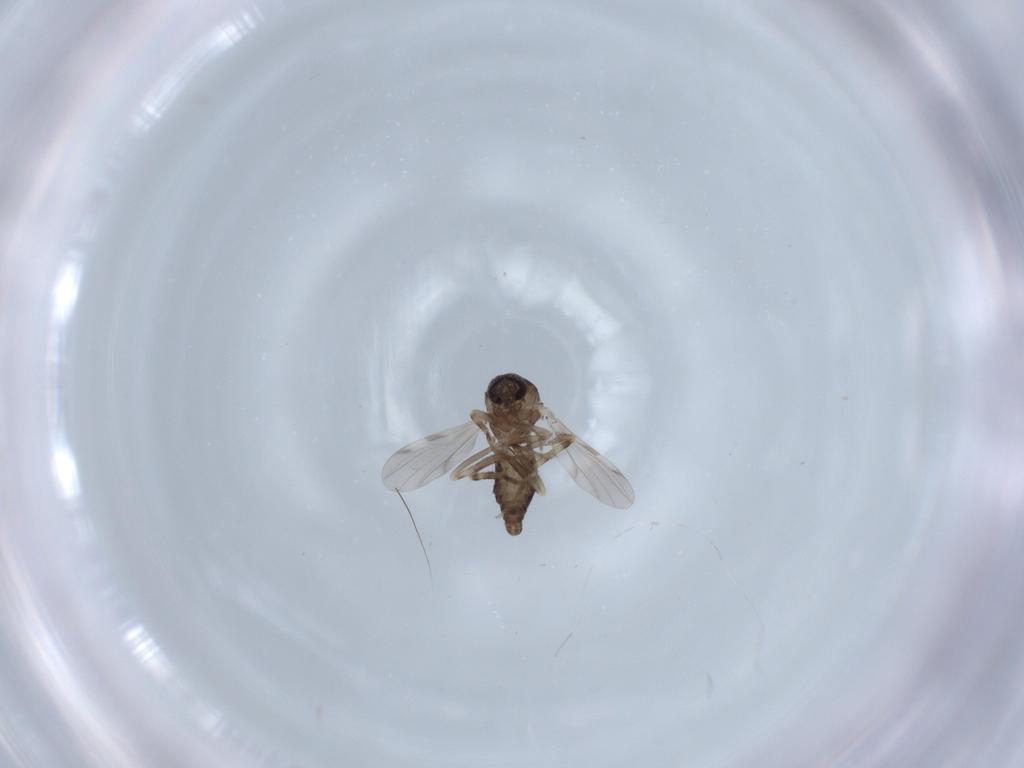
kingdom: Animalia
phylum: Arthropoda
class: Insecta
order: Diptera
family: Ceratopogonidae
